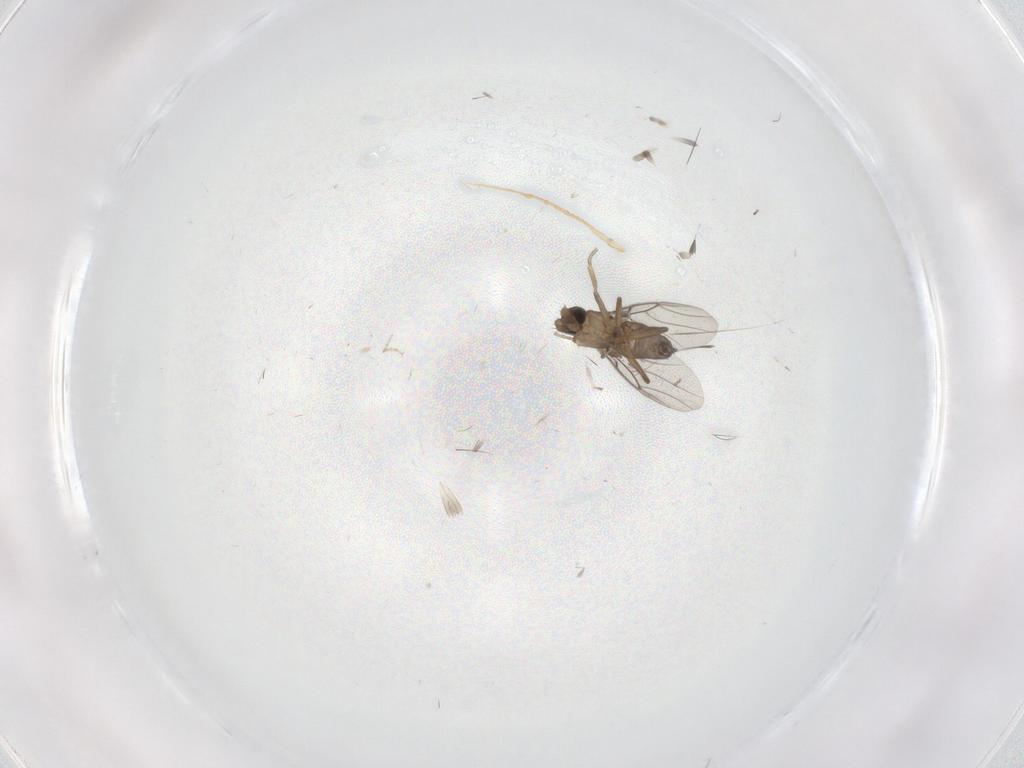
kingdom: Animalia
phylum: Arthropoda
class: Insecta
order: Diptera
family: Phoridae
